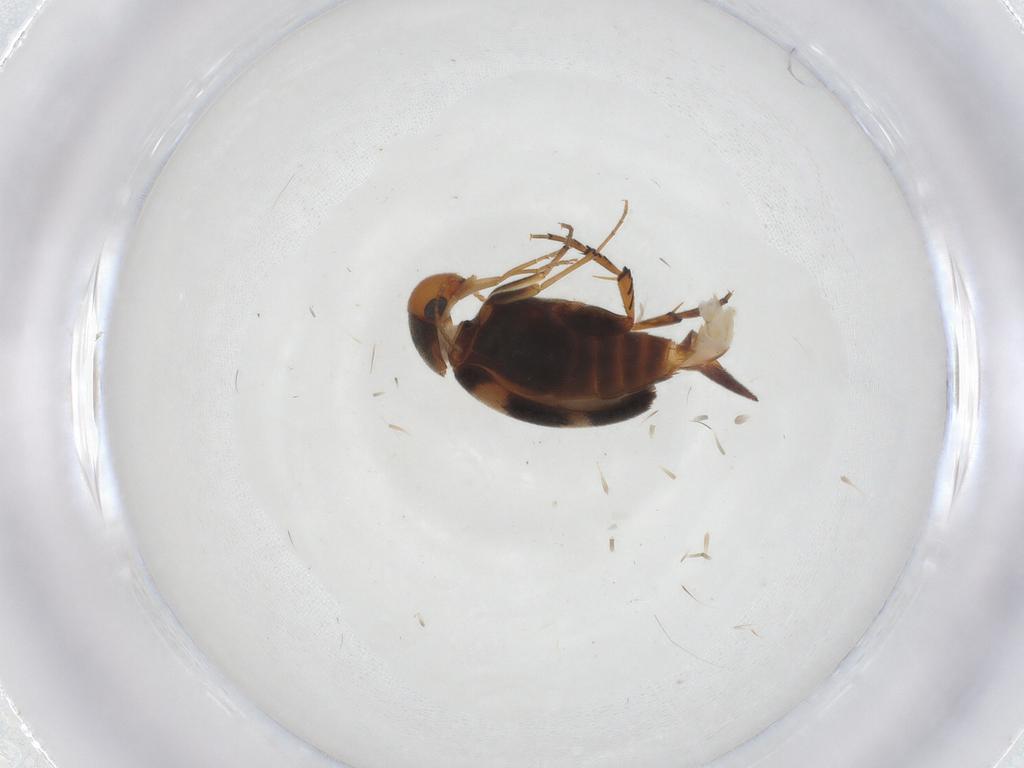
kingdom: Animalia
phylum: Arthropoda
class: Insecta
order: Coleoptera
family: Mordellidae
